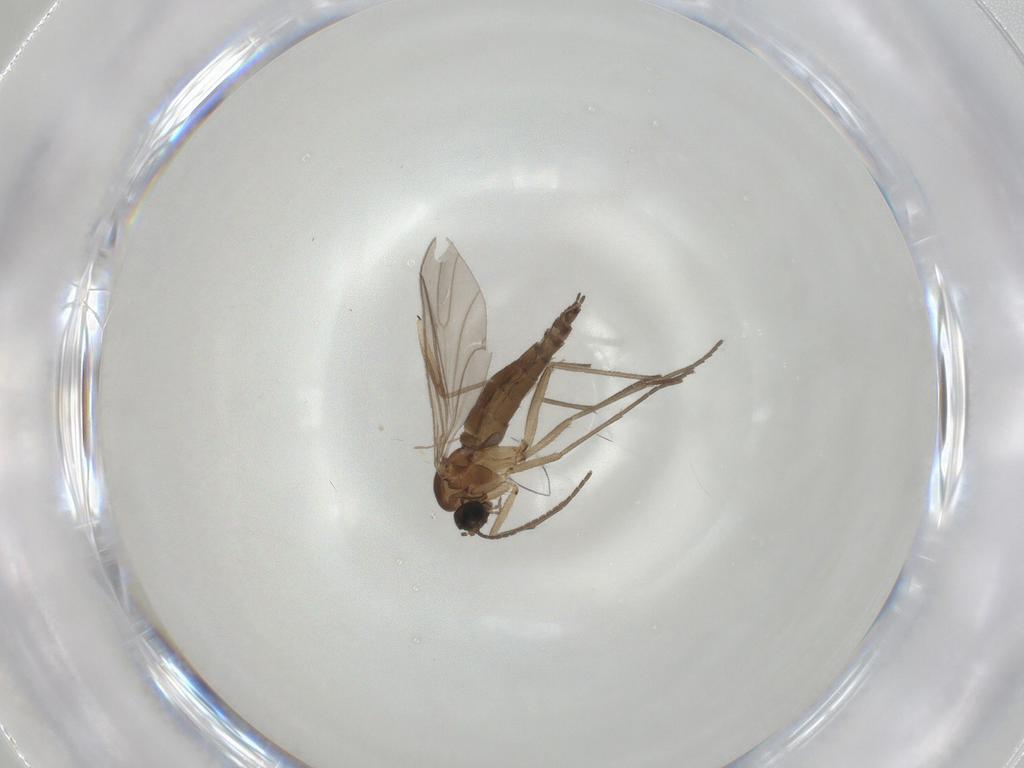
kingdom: Animalia
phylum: Arthropoda
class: Insecta
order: Diptera
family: Sciaridae
